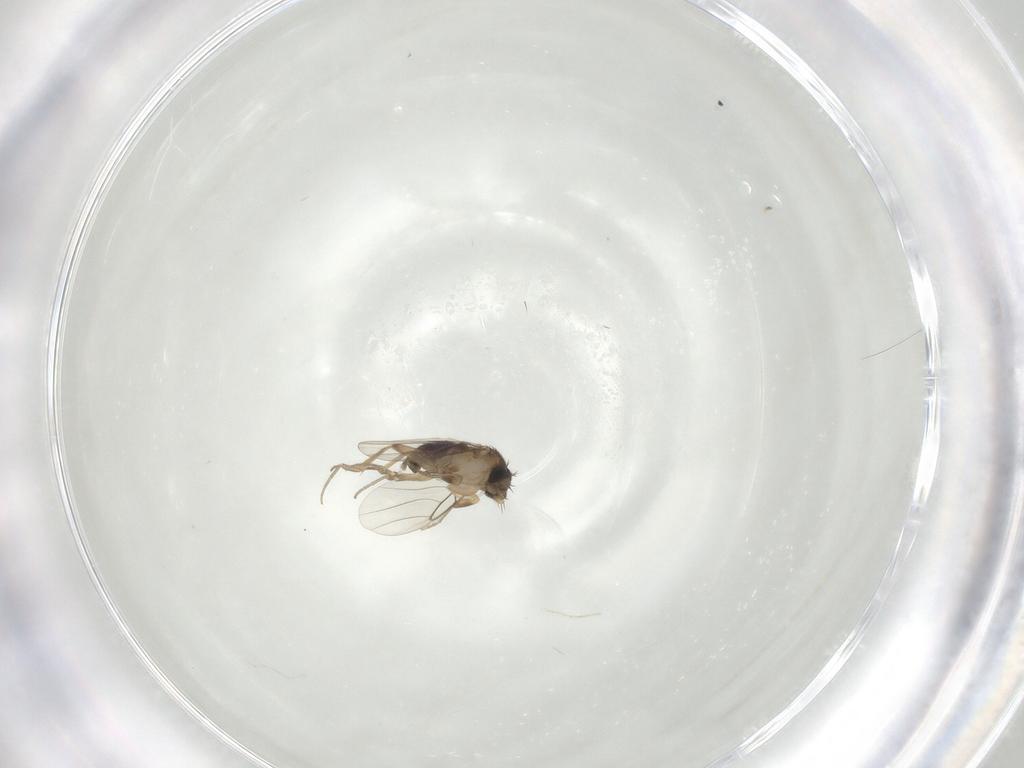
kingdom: Animalia
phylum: Arthropoda
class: Insecta
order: Diptera
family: Phoridae
